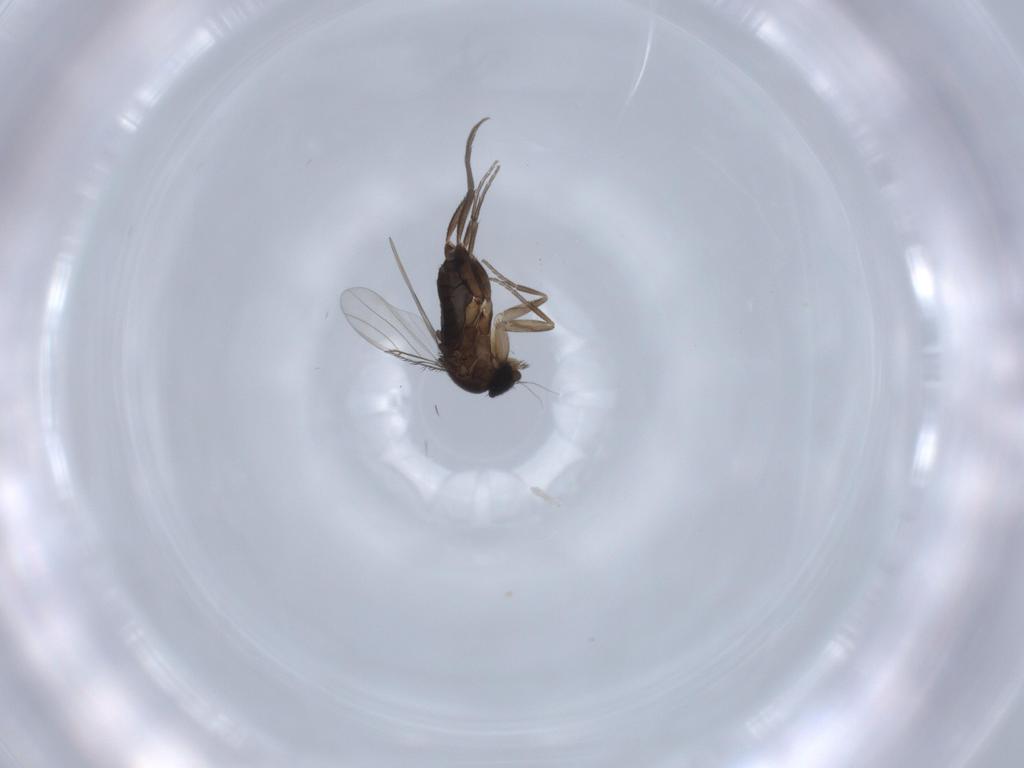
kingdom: Animalia
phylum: Arthropoda
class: Insecta
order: Diptera
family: Phoridae
